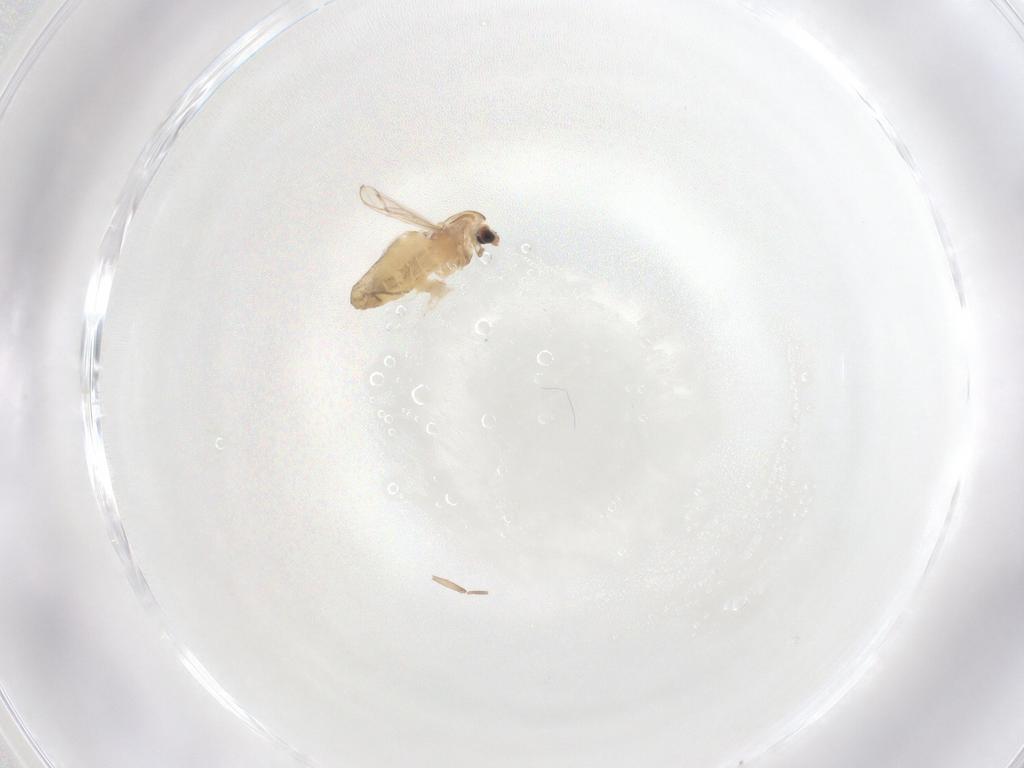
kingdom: Animalia
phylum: Arthropoda
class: Insecta
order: Diptera
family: Chironomidae
